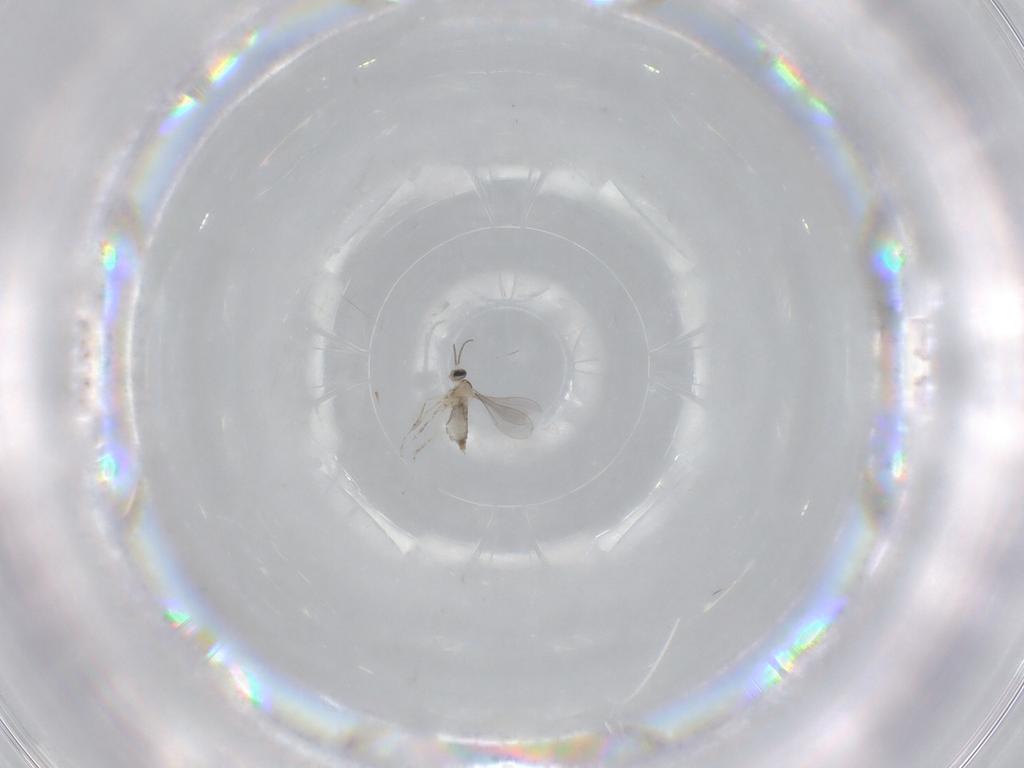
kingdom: Animalia
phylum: Arthropoda
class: Insecta
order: Diptera
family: Chironomidae
